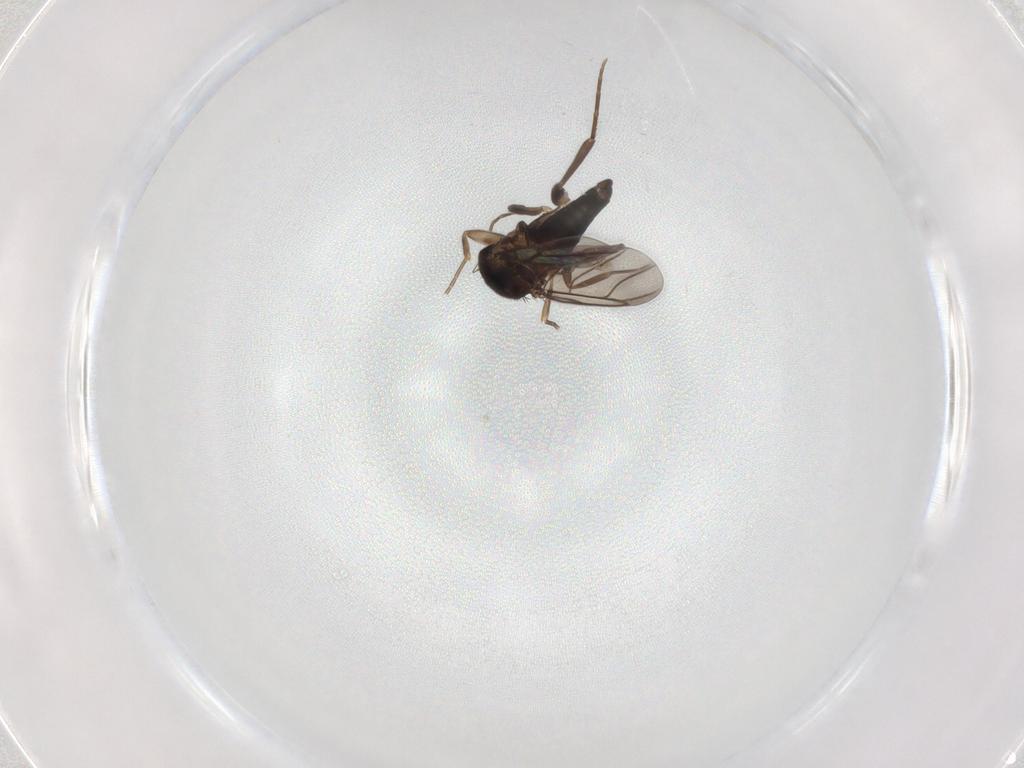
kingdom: Animalia
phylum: Arthropoda
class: Insecta
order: Diptera
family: Phoridae
